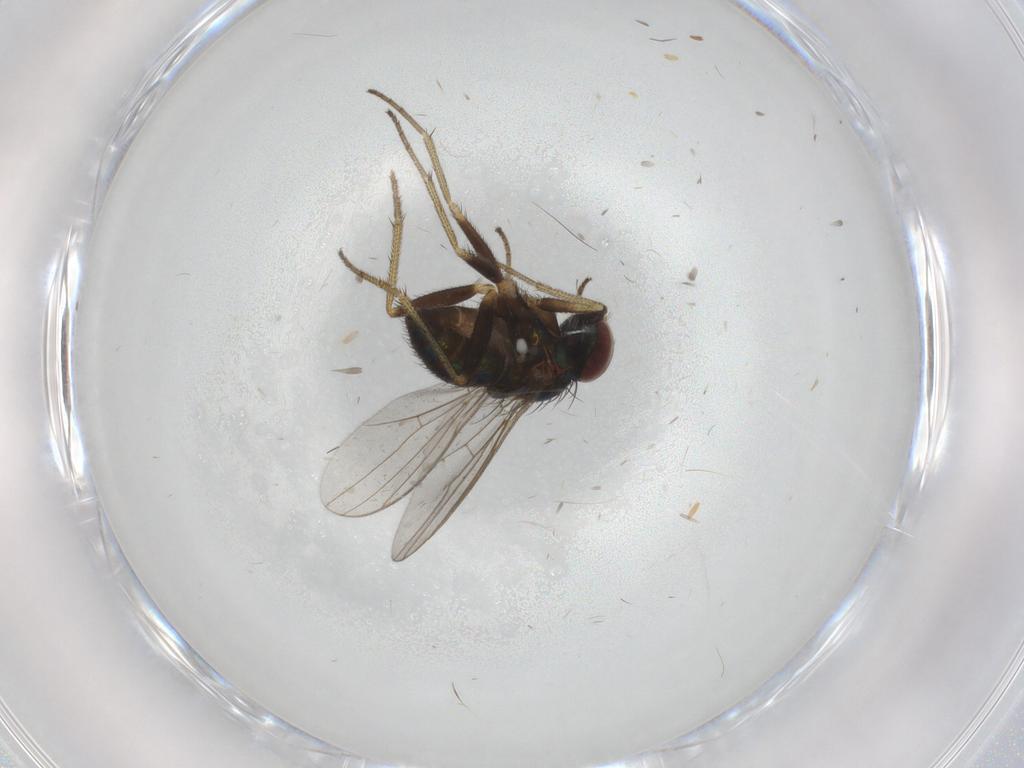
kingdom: Animalia
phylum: Arthropoda
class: Insecta
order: Diptera
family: Dolichopodidae
